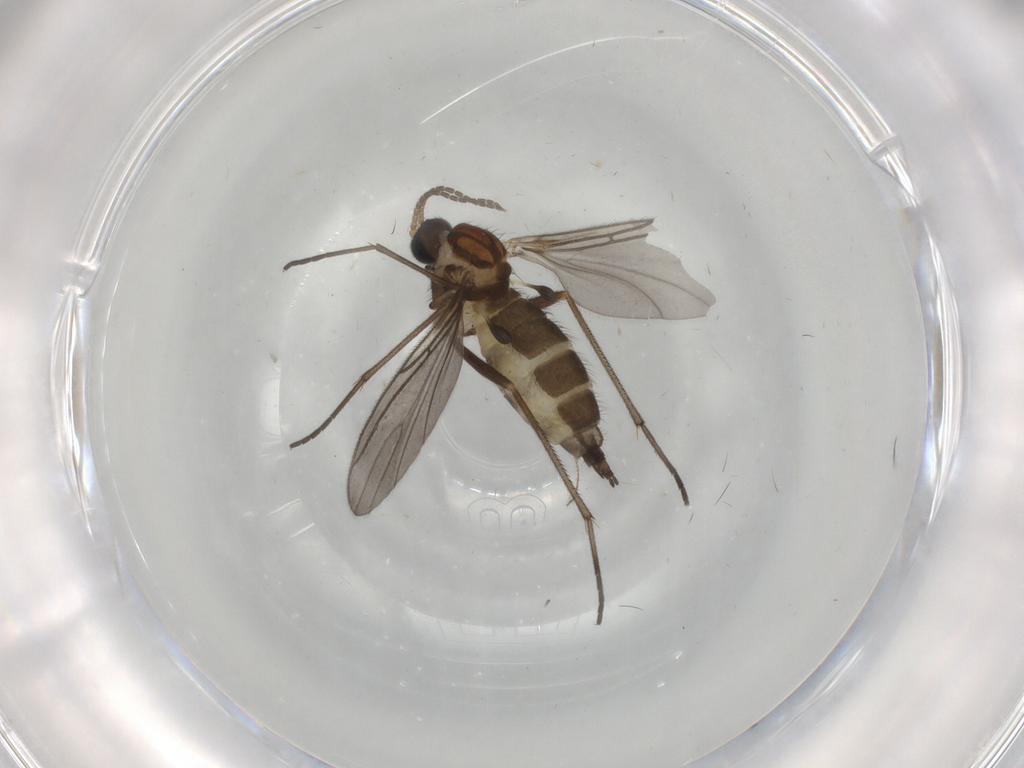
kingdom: Animalia
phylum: Arthropoda
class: Insecta
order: Diptera
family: Sciaridae
